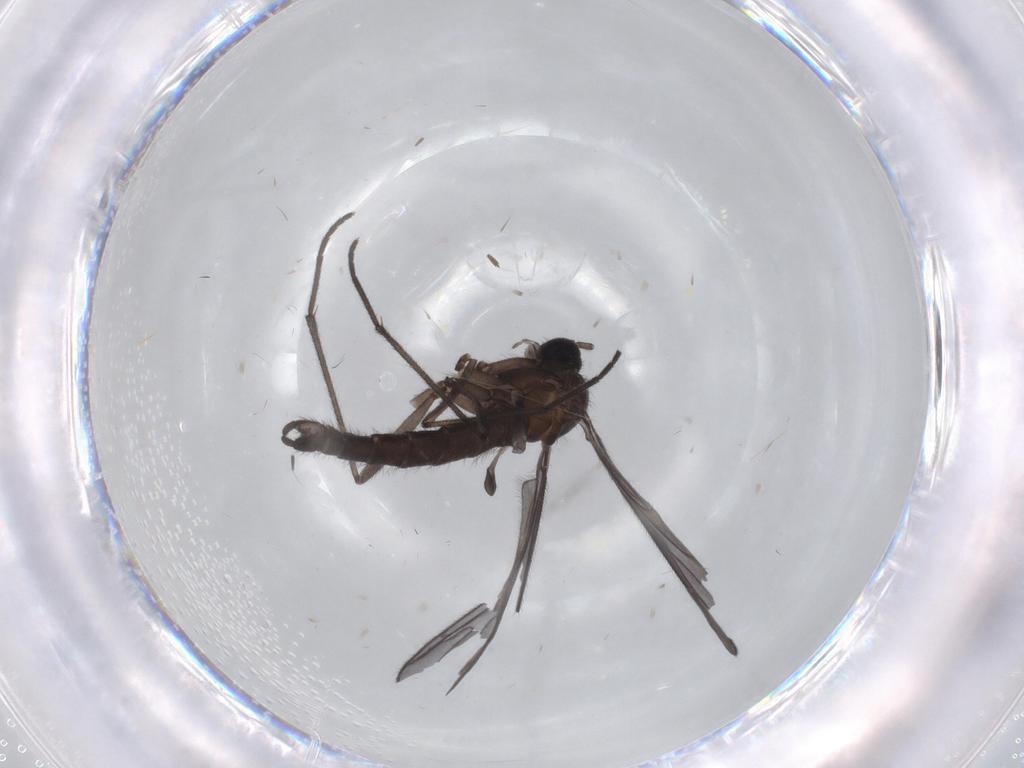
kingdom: Animalia
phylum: Arthropoda
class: Insecta
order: Diptera
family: Sciaridae
